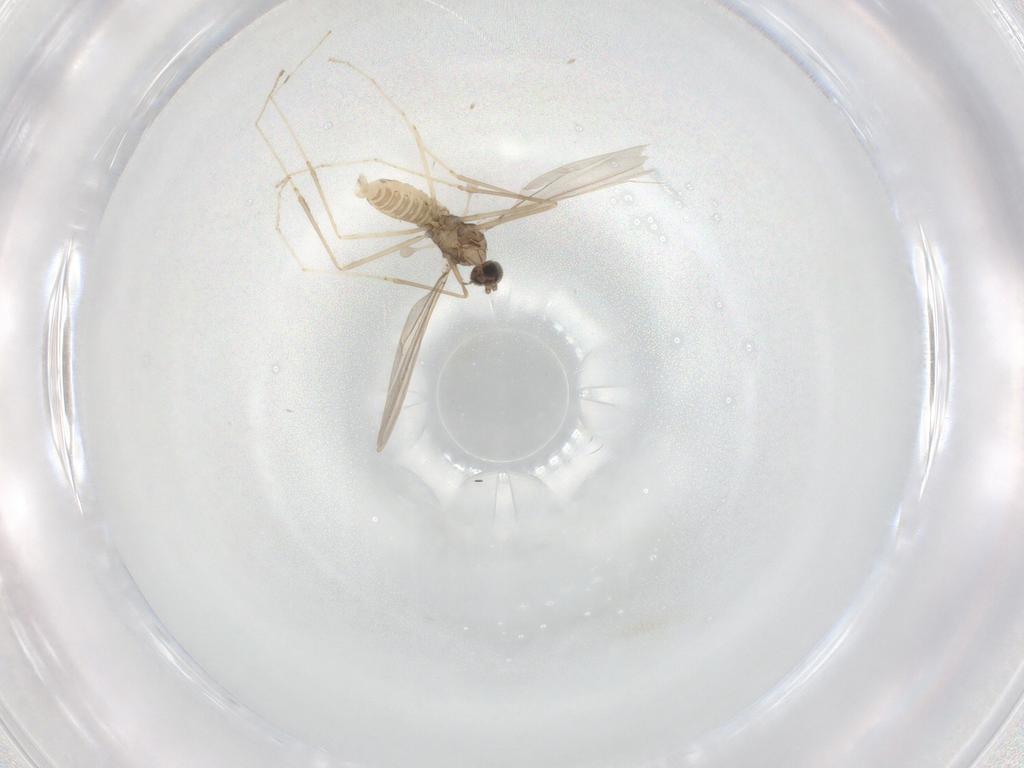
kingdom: Animalia
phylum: Arthropoda
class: Insecta
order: Diptera
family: Cecidomyiidae
